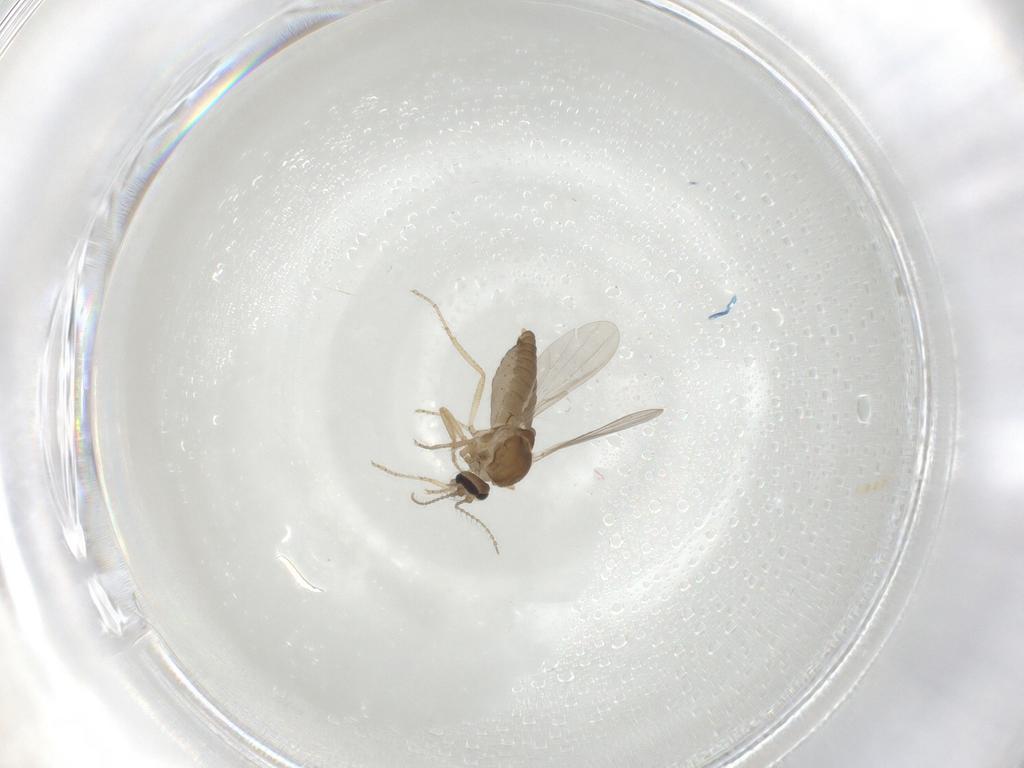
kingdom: Animalia
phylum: Arthropoda
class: Insecta
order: Diptera
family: Ceratopogonidae
